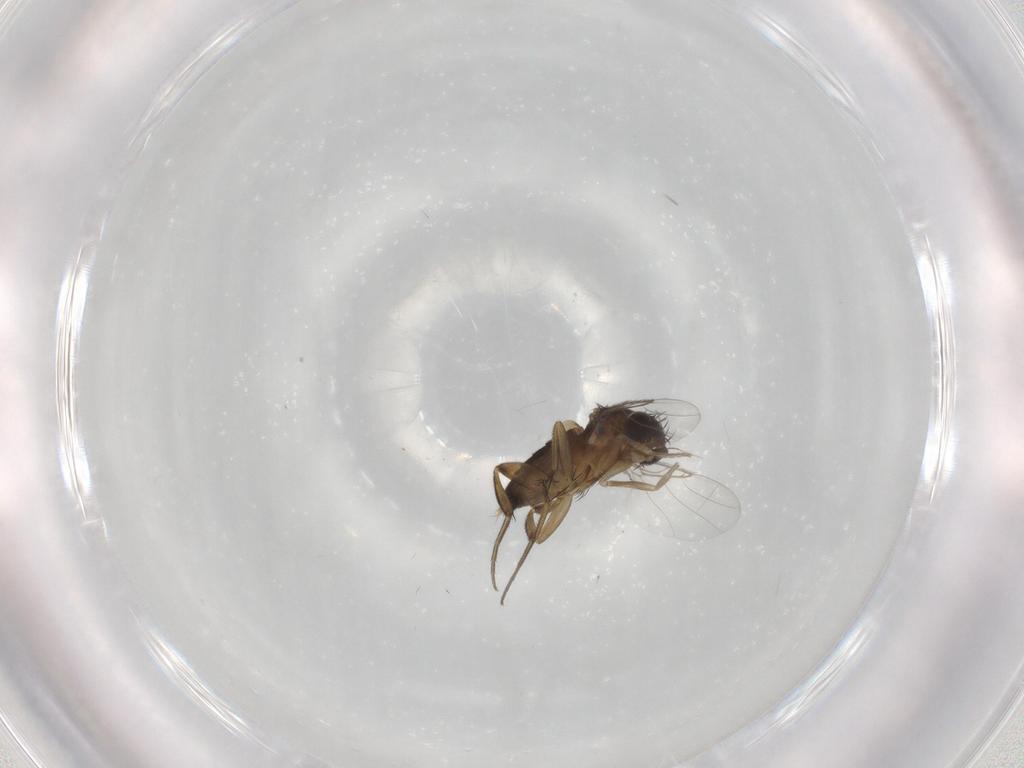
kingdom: Animalia
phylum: Arthropoda
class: Insecta
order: Diptera
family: Phoridae
